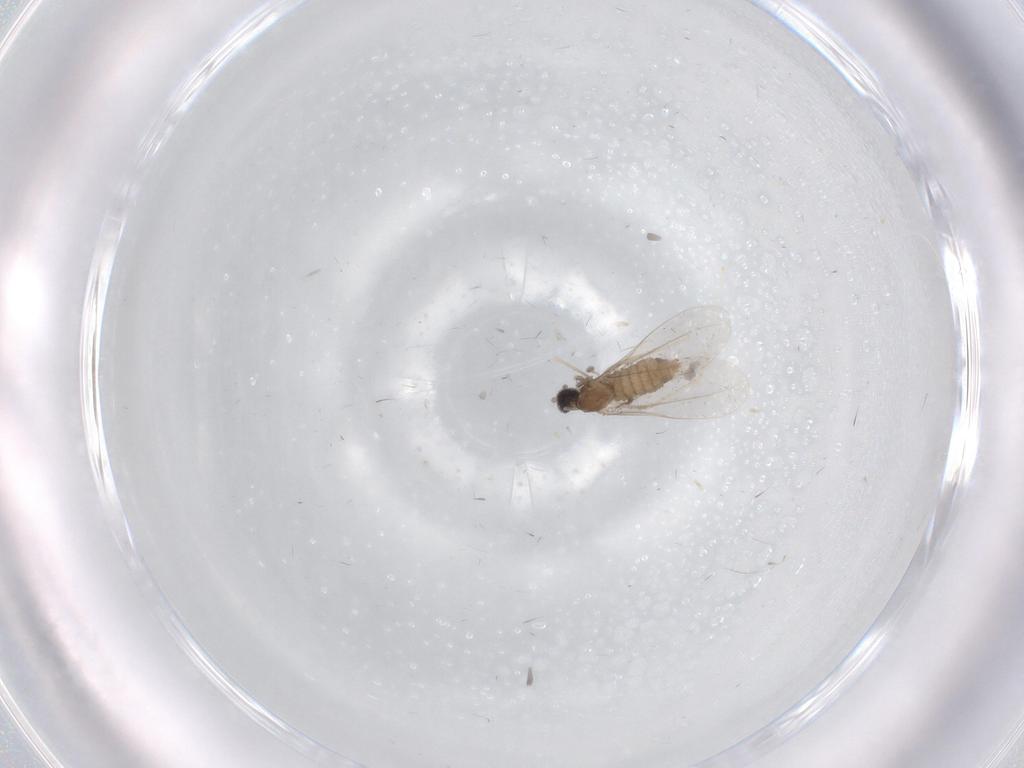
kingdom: Animalia
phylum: Arthropoda
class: Insecta
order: Diptera
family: Cecidomyiidae
